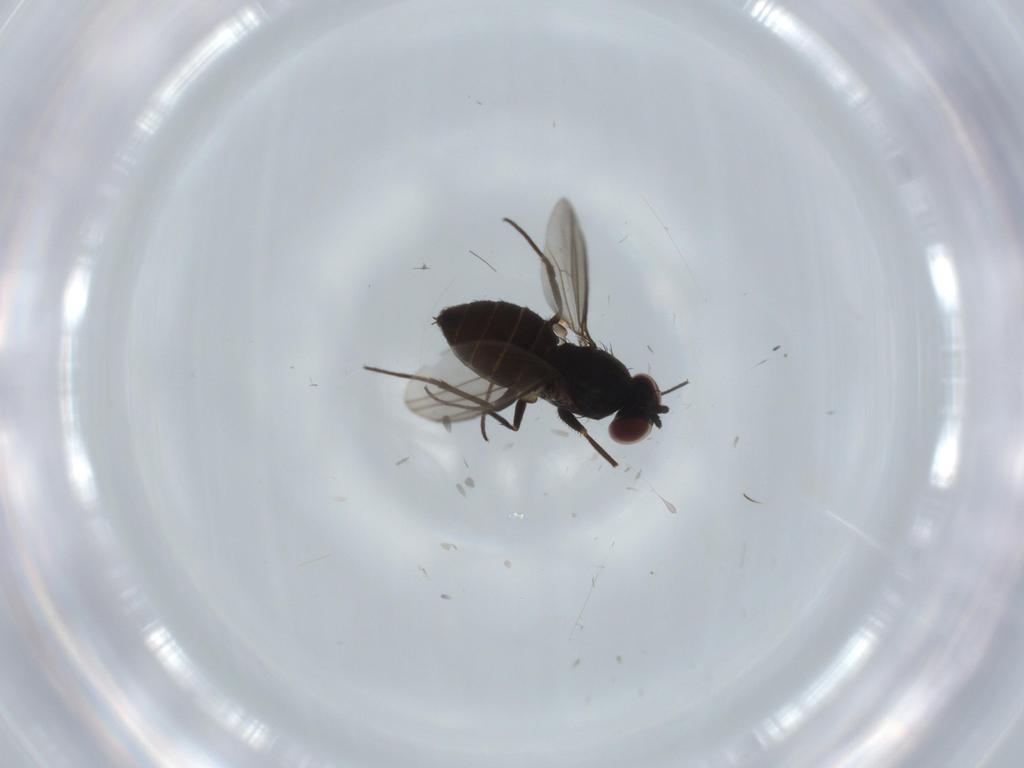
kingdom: Animalia
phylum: Arthropoda
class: Insecta
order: Diptera
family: Dolichopodidae
